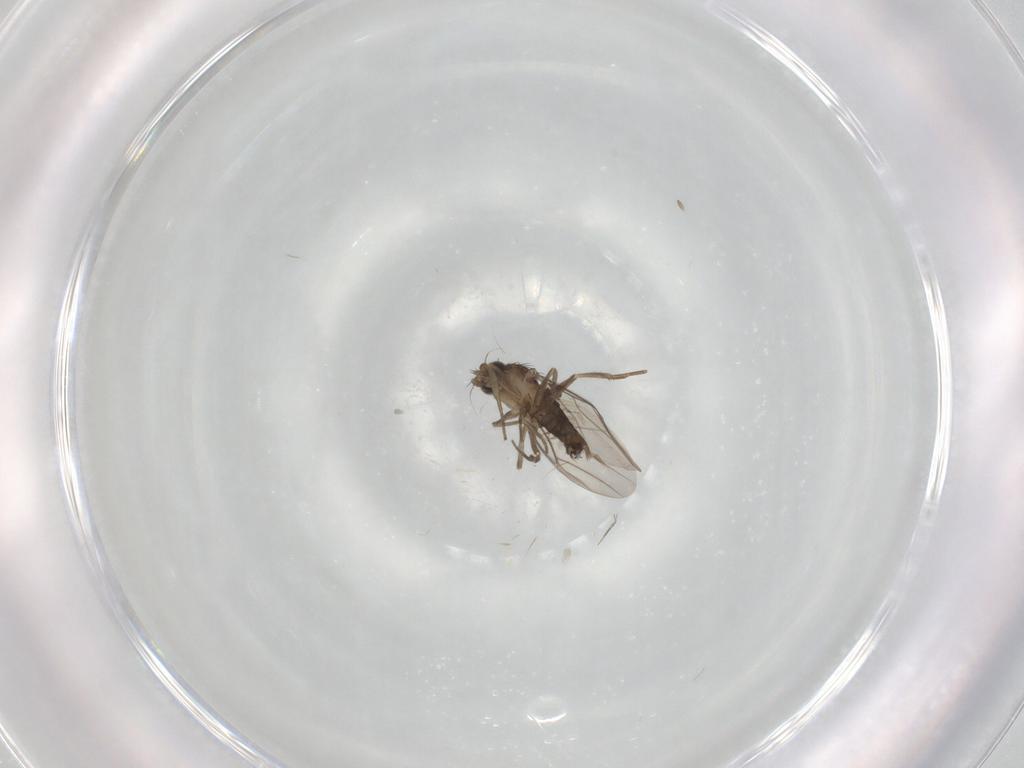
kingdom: Animalia
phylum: Arthropoda
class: Insecta
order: Diptera
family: Phoridae
